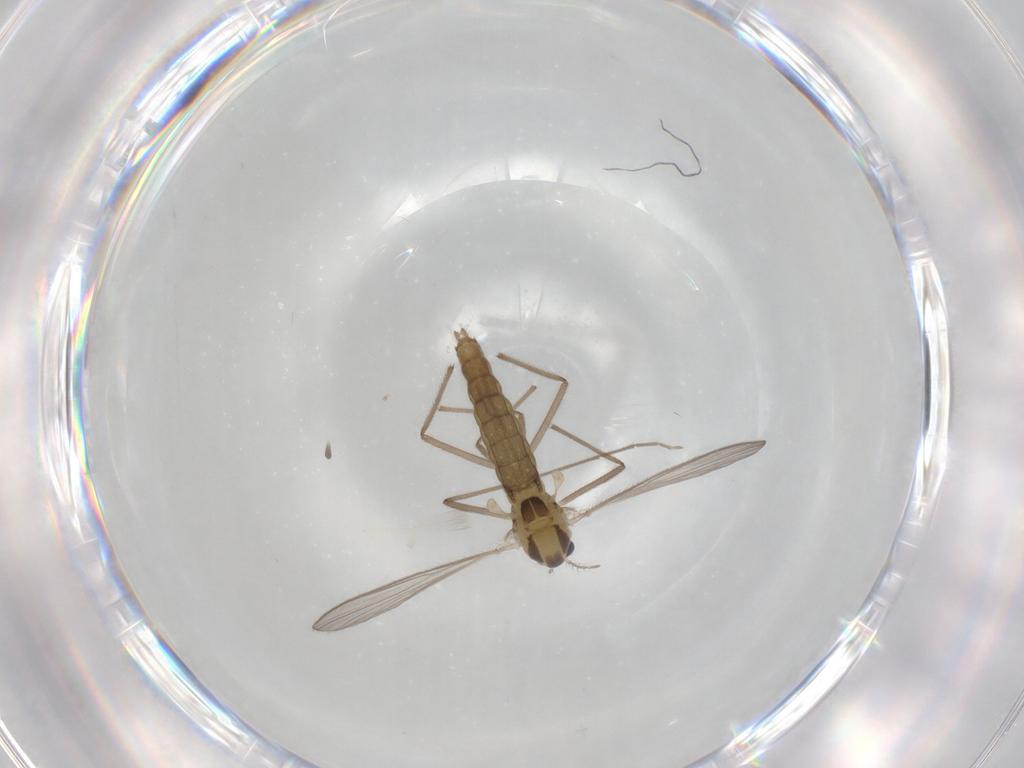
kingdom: Animalia
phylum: Arthropoda
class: Insecta
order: Diptera
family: Chironomidae
